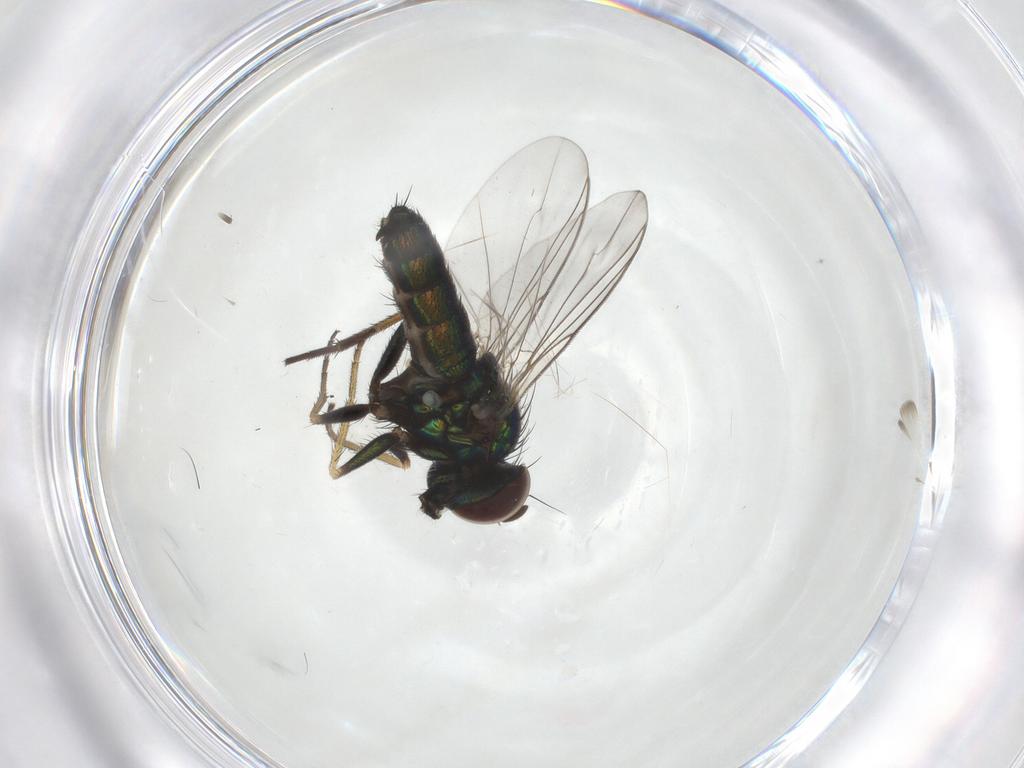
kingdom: Animalia
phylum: Arthropoda
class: Insecta
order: Diptera
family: Dolichopodidae
